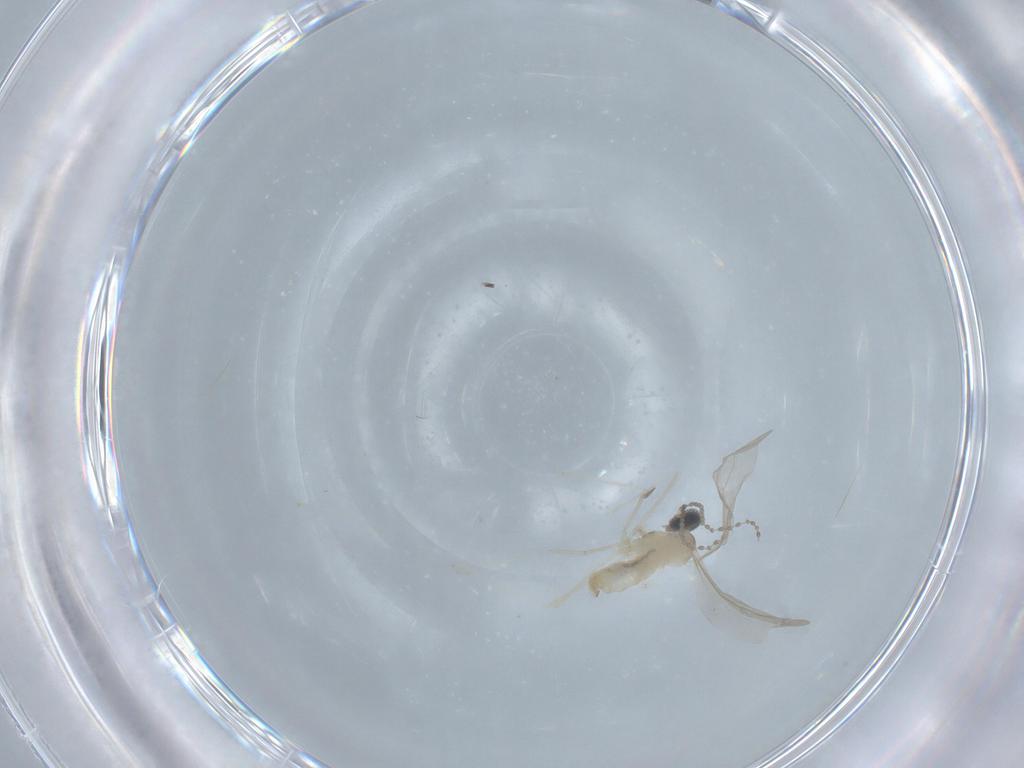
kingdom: Animalia
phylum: Arthropoda
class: Insecta
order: Diptera
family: Cecidomyiidae
